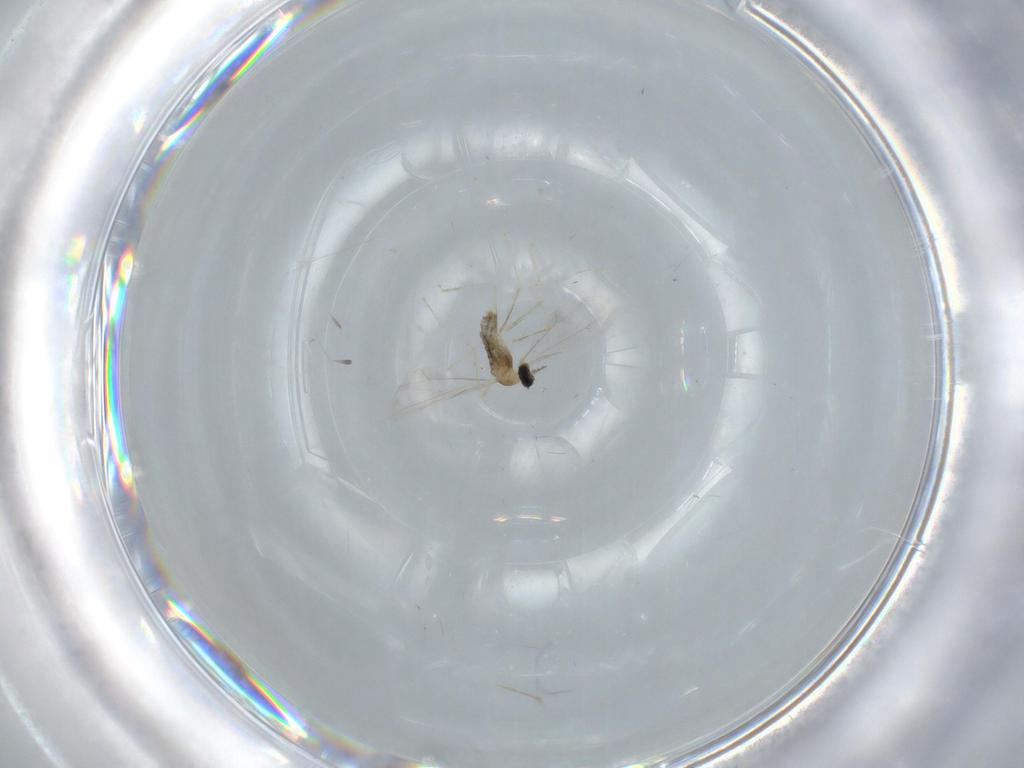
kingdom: Animalia
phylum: Arthropoda
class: Insecta
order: Diptera
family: Cecidomyiidae
